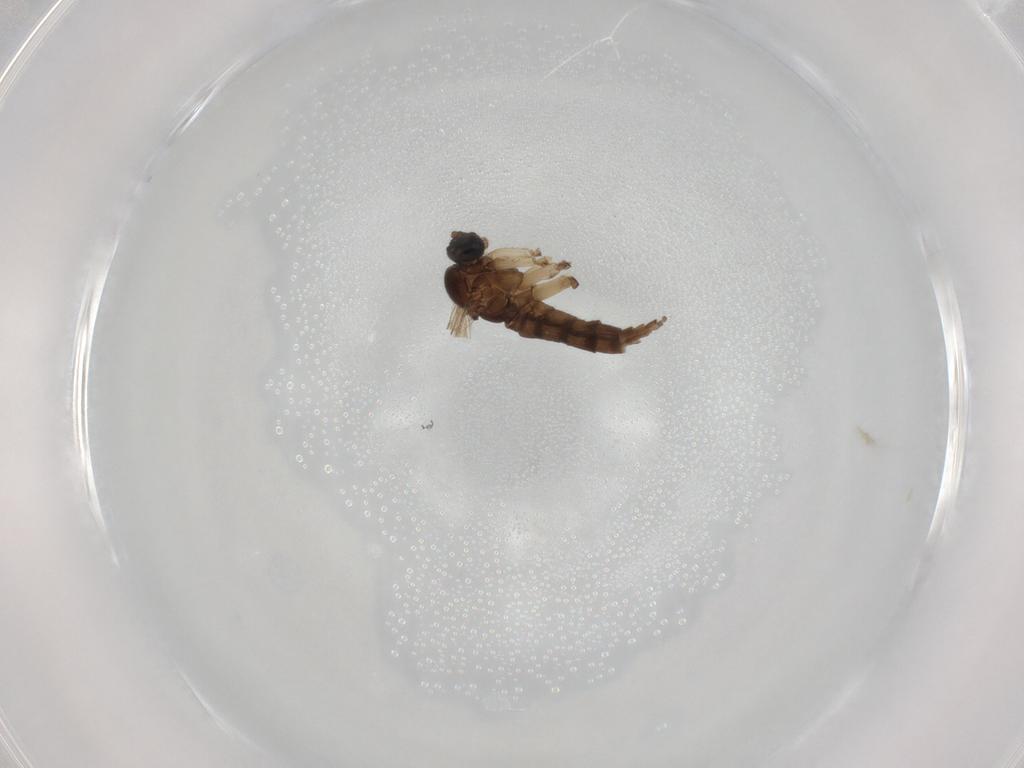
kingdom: Animalia
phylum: Arthropoda
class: Insecta
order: Diptera
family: Sciaridae
